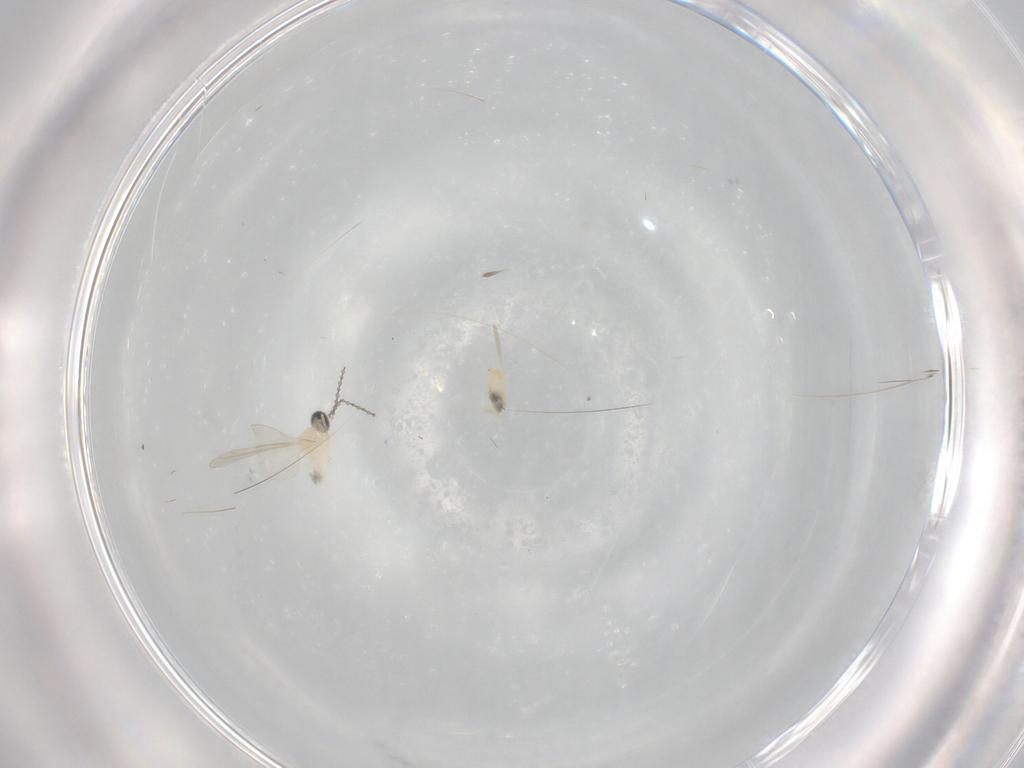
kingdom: Animalia
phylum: Arthropoda
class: Insecta
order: Diptera
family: Cecidomyiidae
